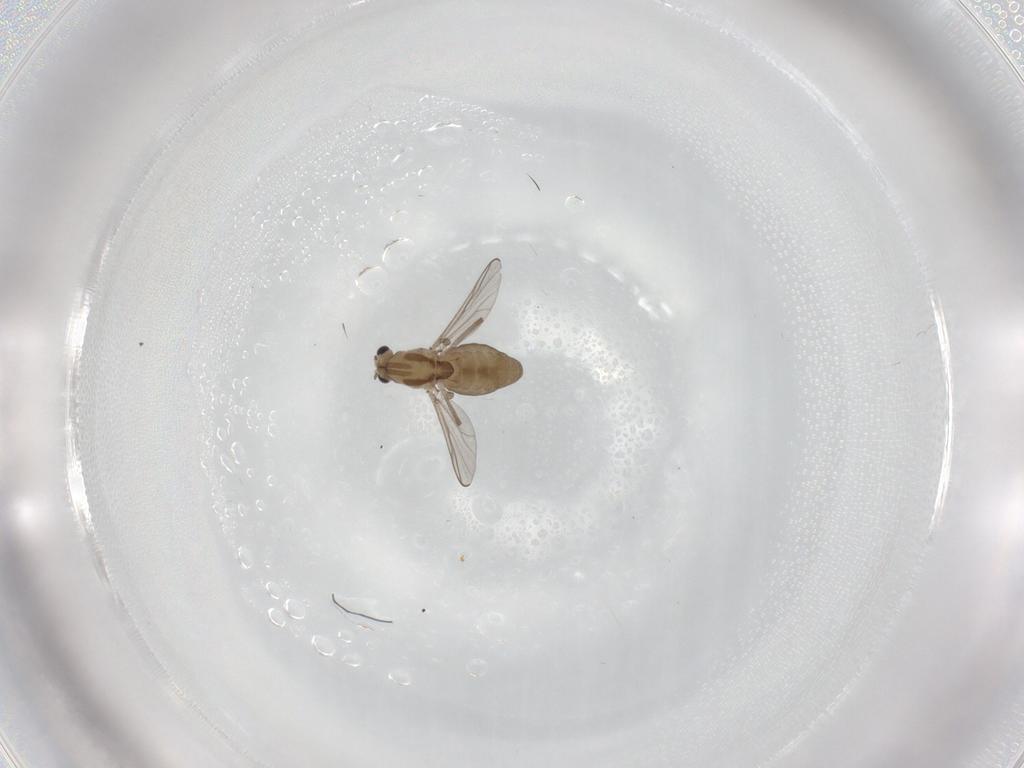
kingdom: Animalia
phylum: Arthropoda
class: Insecta
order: Diptera
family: Chironomidae
